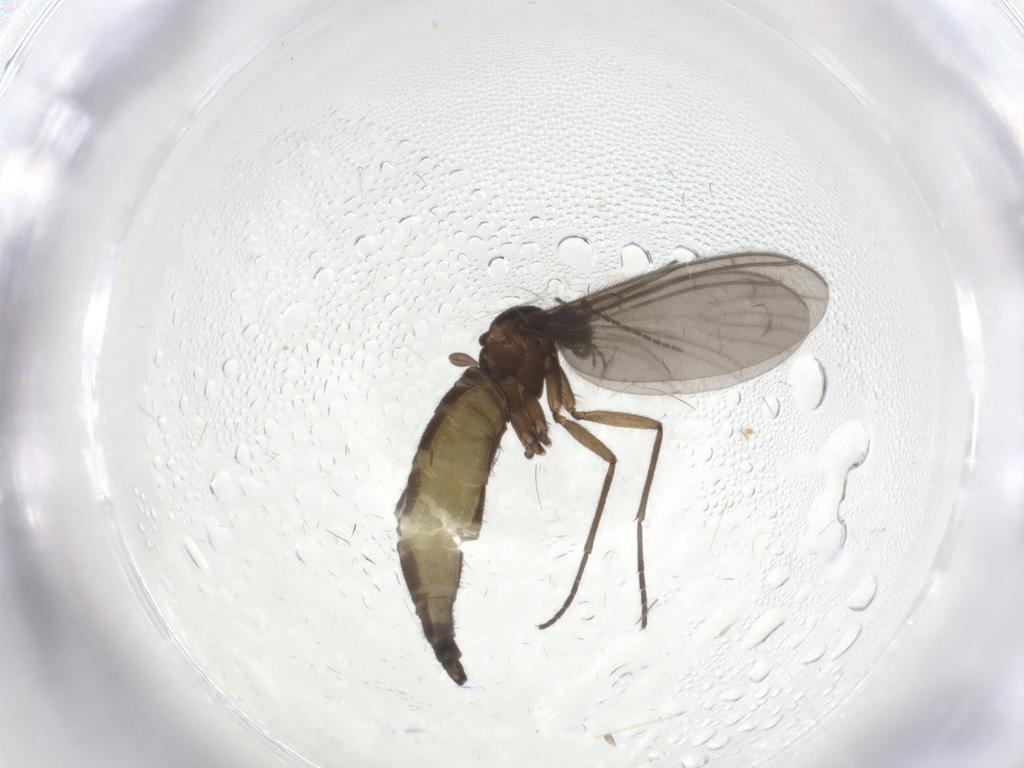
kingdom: Animalia
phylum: Arthropoda
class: Insecta
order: Diptera
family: Sciaridae
